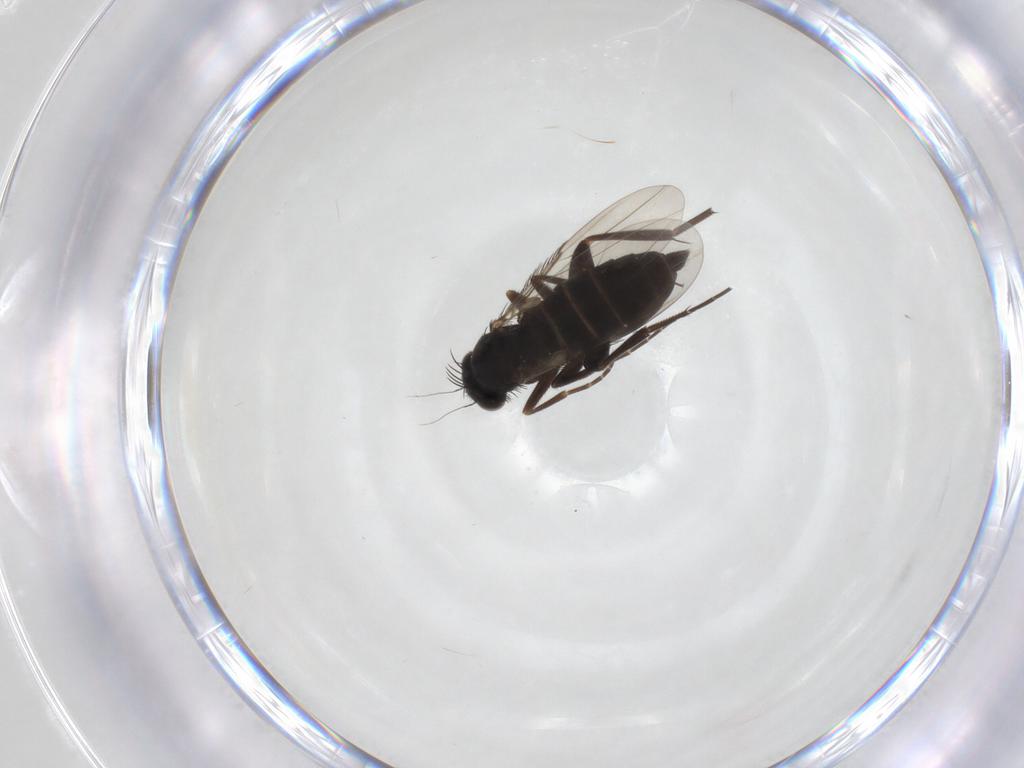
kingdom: Animalia
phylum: Arthropoda
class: Insecta
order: Diptera
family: Phoridae
